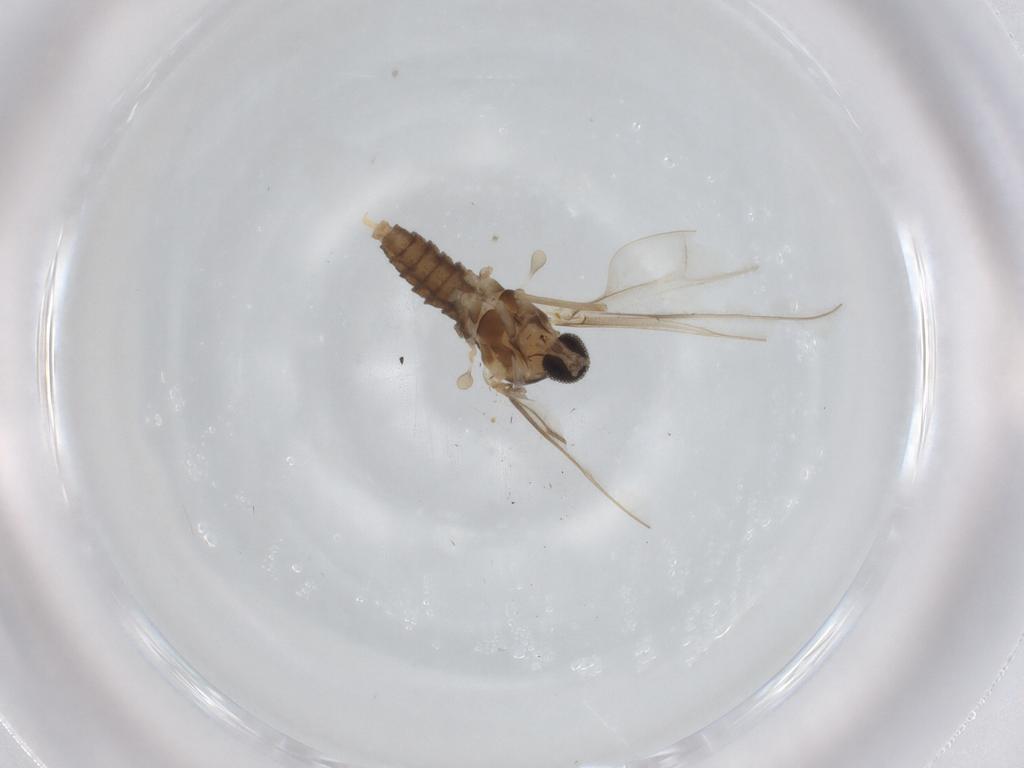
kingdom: Animalia
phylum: Arthropoda
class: Insecta
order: Diptera
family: Cecidomyiidae
